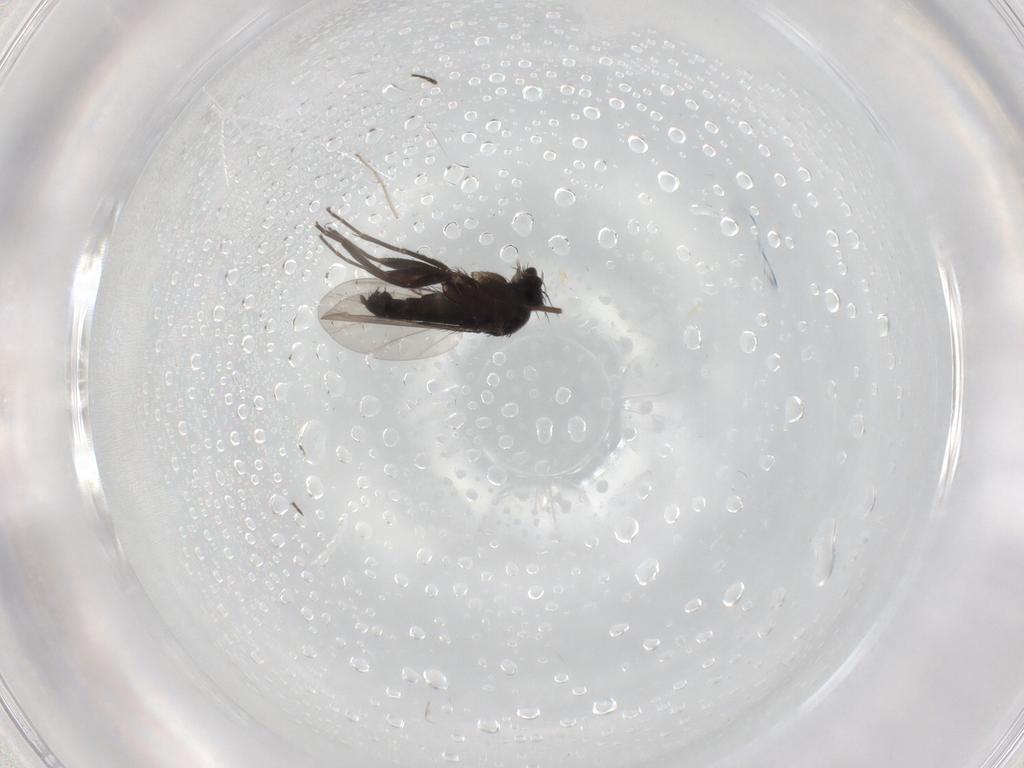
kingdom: Animalia
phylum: Arthropoda
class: Insecta
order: Diptera
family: Phoridae
